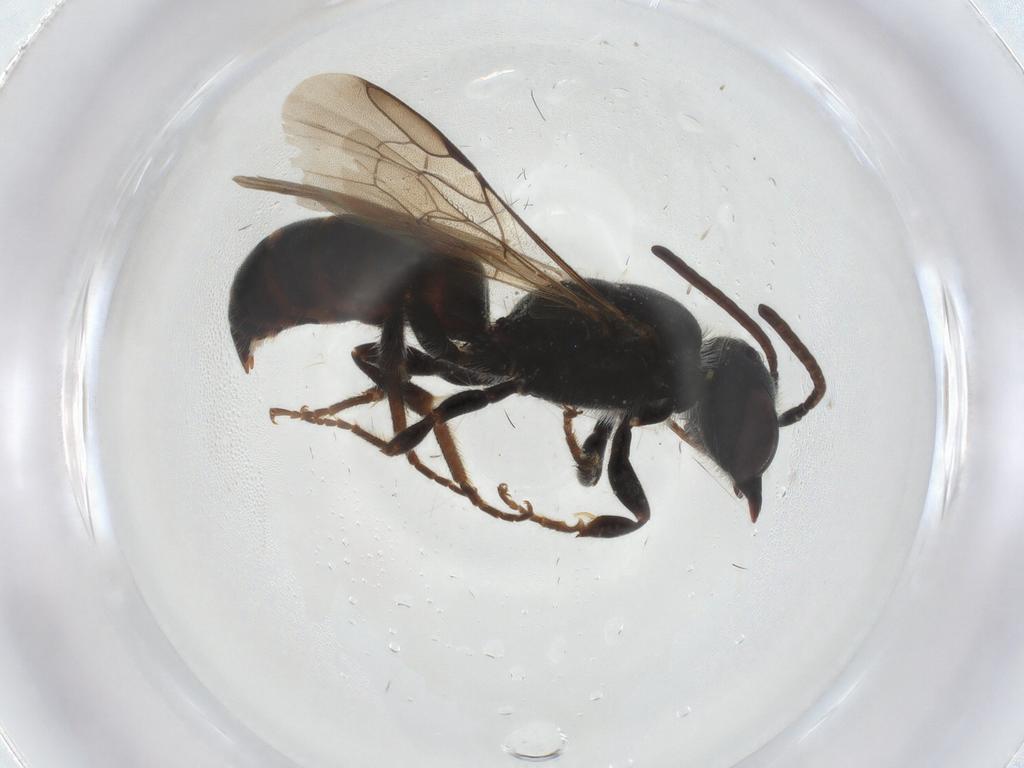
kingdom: Animalia
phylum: Arthropoda
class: Insecta
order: Hymenoptera
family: Megachilidae
